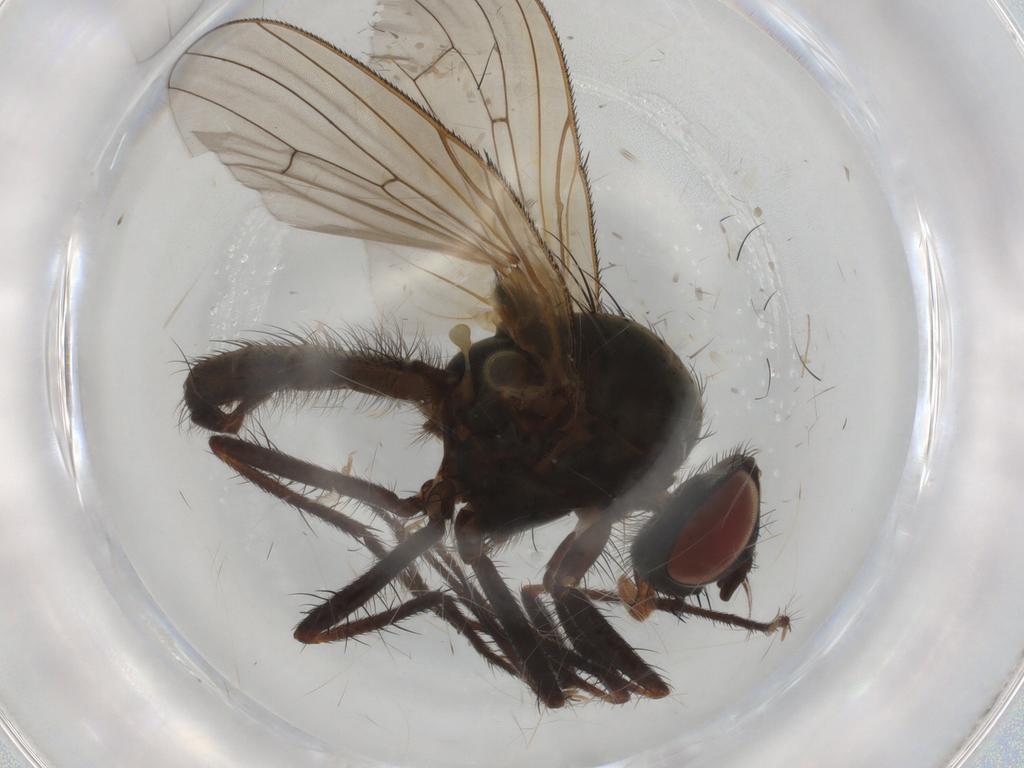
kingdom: Animalia
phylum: Arthropoda
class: Insecta
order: Diptera
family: Anthomyiidae
